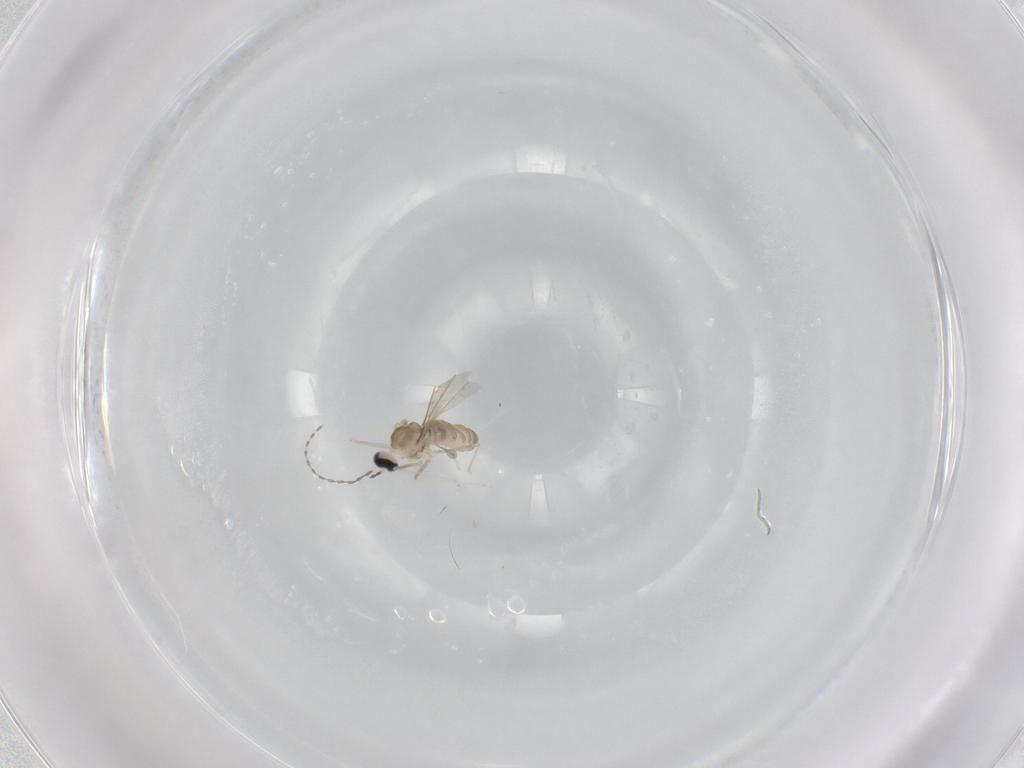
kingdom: Animalia
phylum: Arthropoda
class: Insecta
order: Diptera
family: Cecidomyiidae
